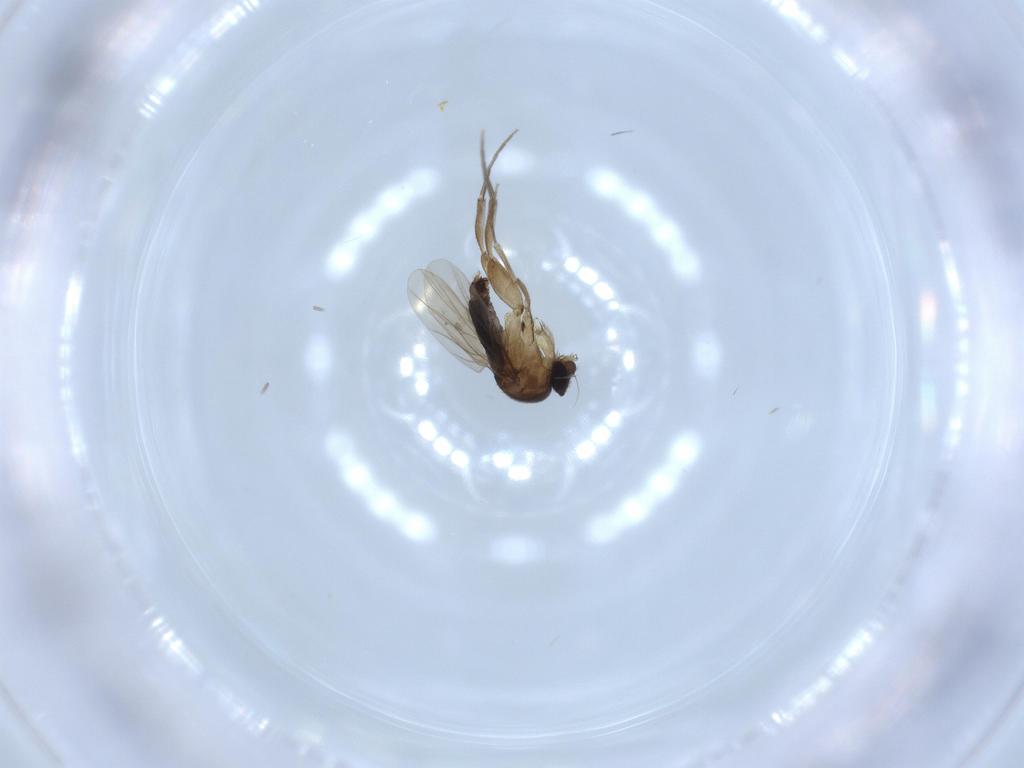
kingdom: Animalia
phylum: Arthropoda
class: Insecta
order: Diptera
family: Phoridae
